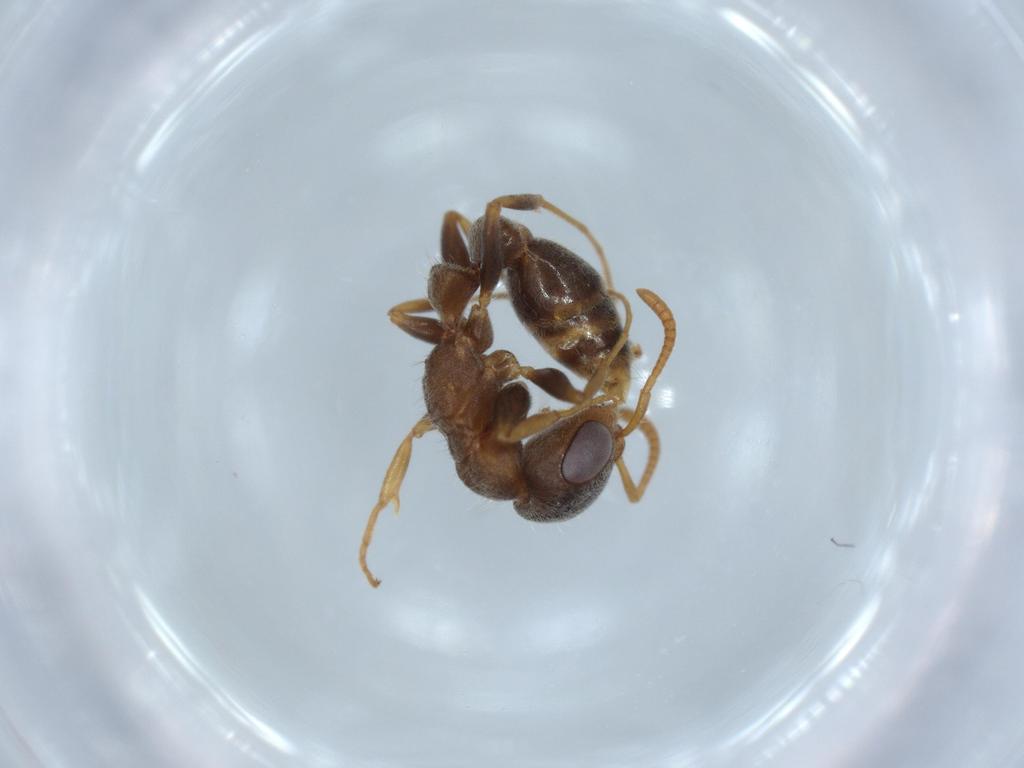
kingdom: Animalia
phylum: Arthropoda
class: Insecta
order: Hymenoptera
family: Formicidae
